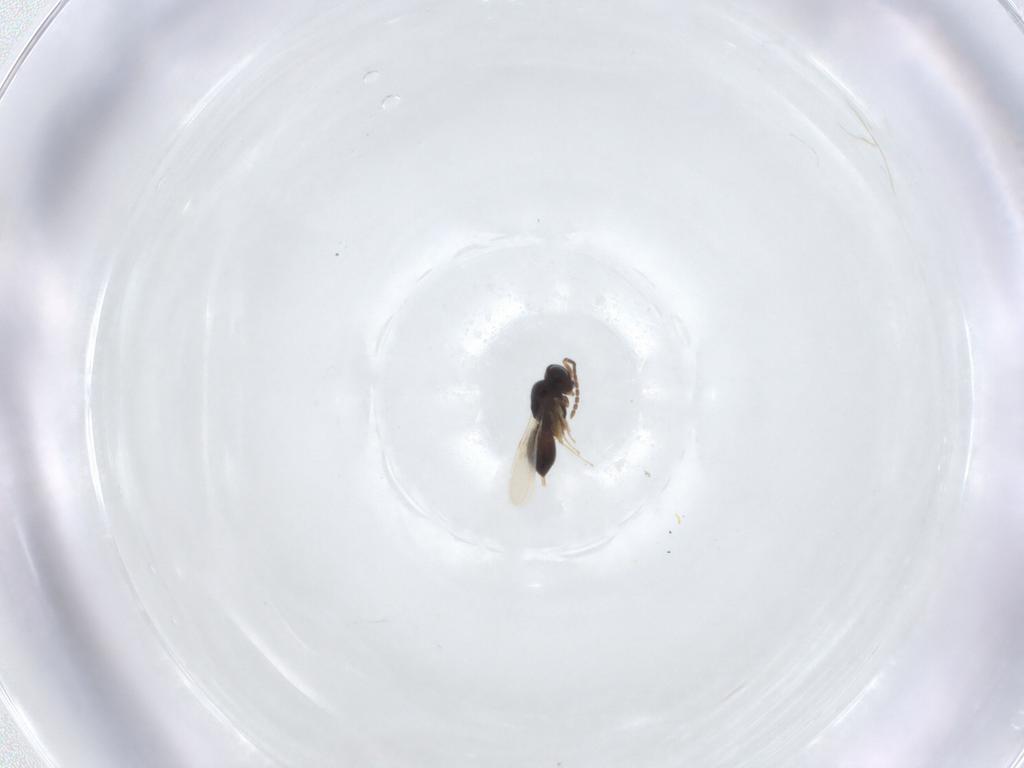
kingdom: Animalia
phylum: Arthropoda
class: Insecta
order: Hymenoptera
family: Scelionidae
